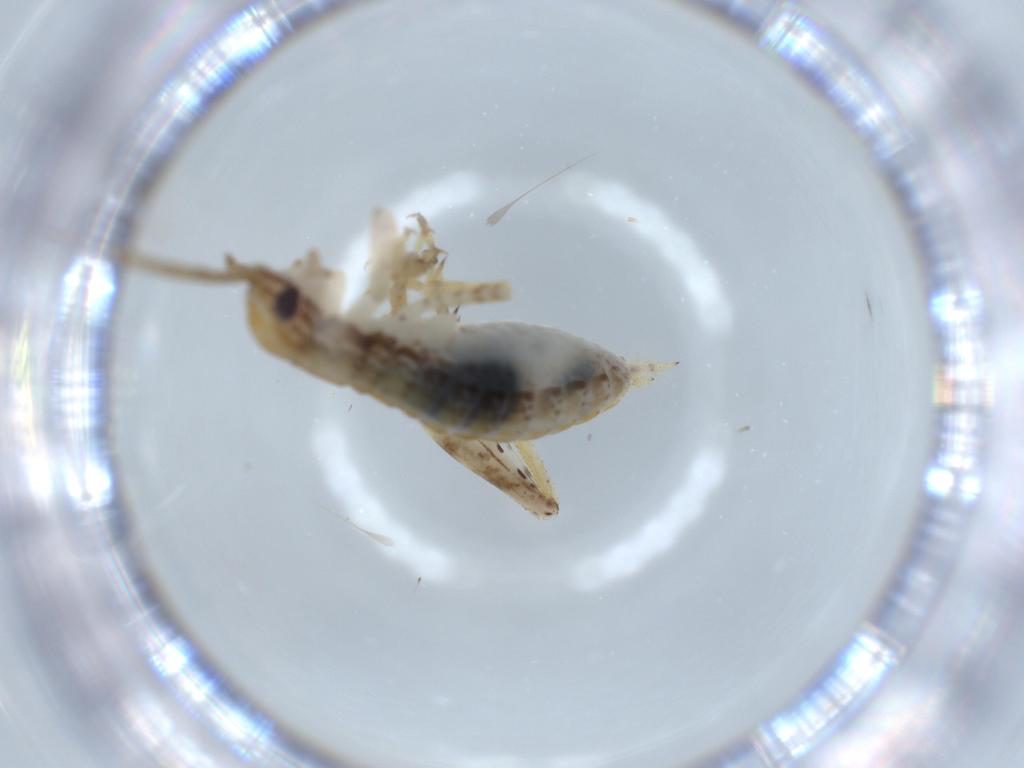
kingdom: Animalia
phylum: Arthropoda
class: Insecta
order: Orthoptera
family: Gryllidae
